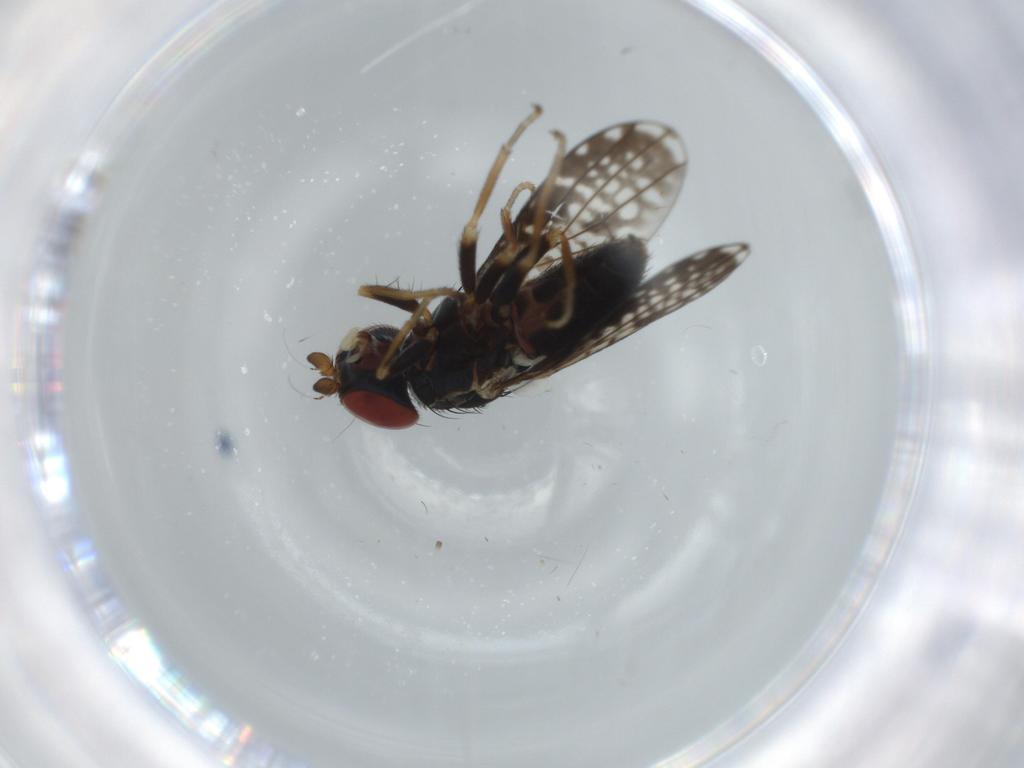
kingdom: Animalia
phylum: Arthropoda
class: Insecta
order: Diptera
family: Chamaemyiidae
